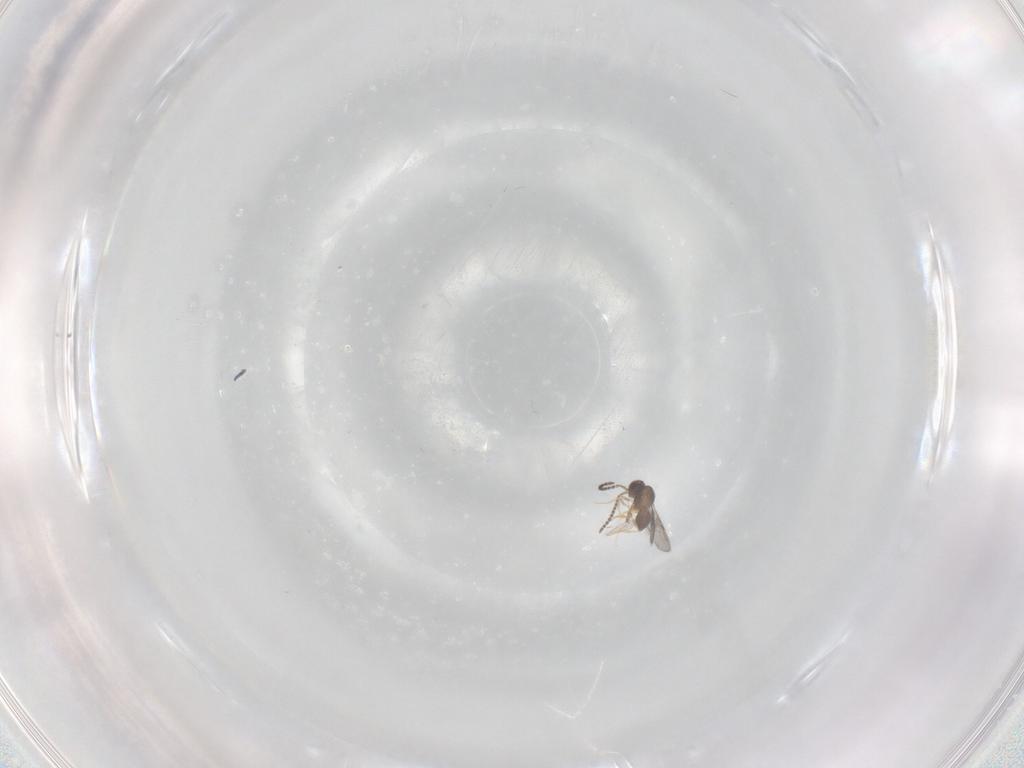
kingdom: Animalia
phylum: Arthropoda
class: Insecta
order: Hymenoptera
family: Ceraphronidae
